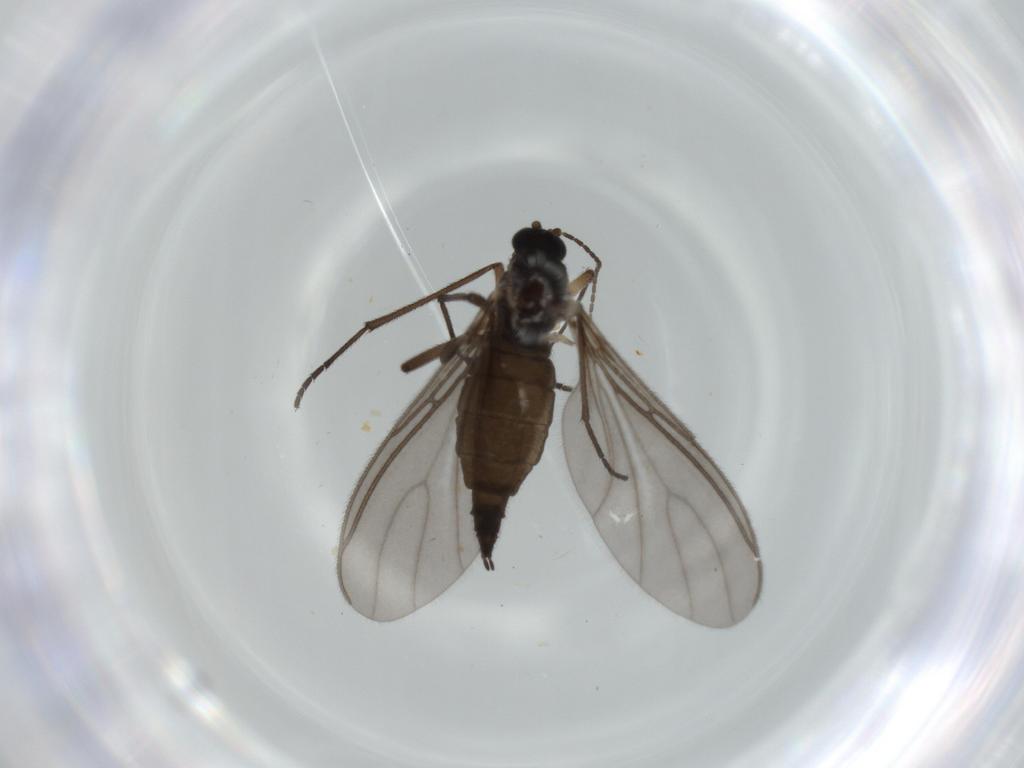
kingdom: Animalia
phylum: Arthropoda
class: Insecta
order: Diptera
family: Sciaridae
